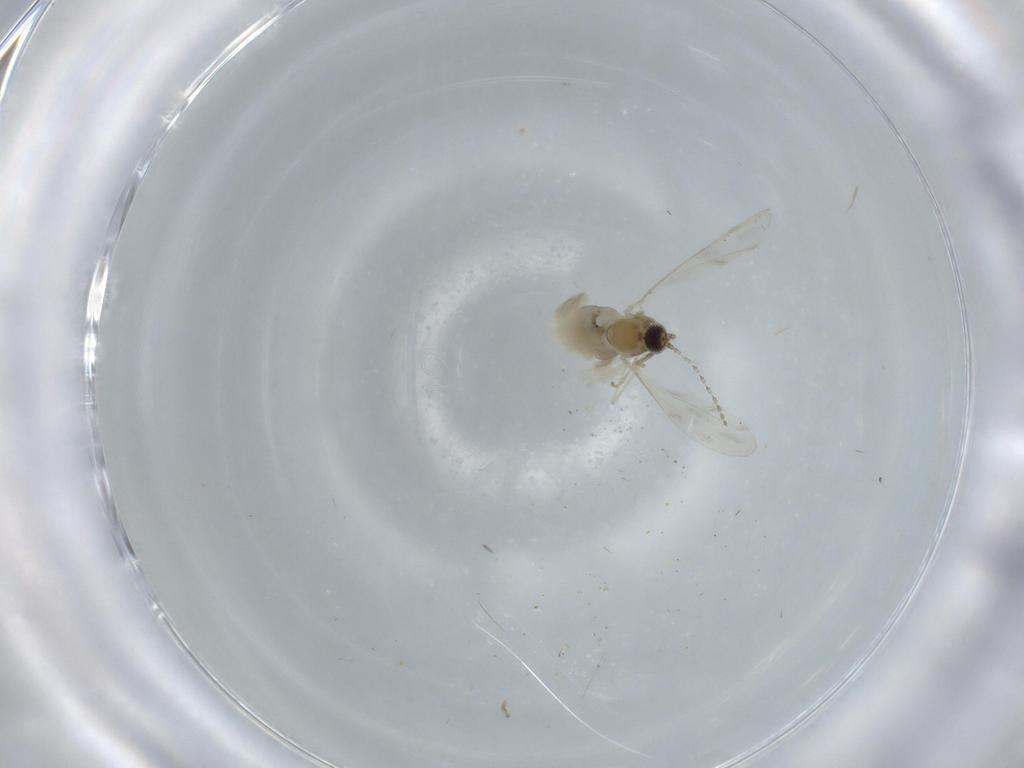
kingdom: Animalia
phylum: Arthropoda
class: Insecta
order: Diptera
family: Cecidomyiidae
